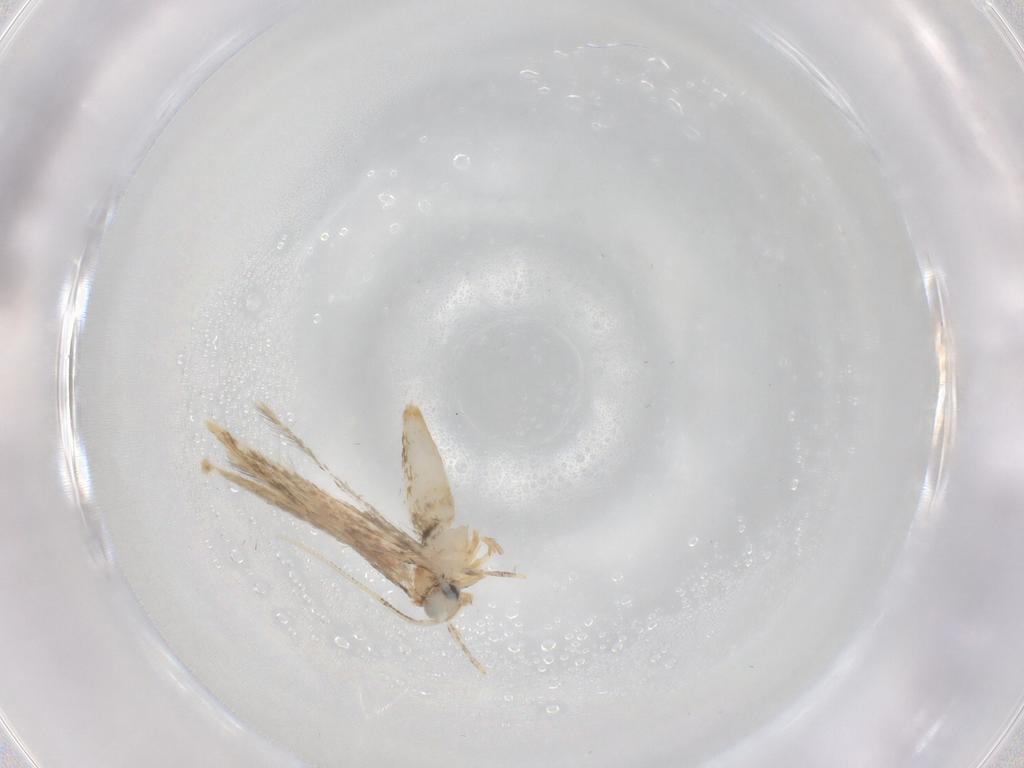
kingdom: Animalia
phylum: Arthropoda
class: Insecta
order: Lepidoptera
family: Tineidae
